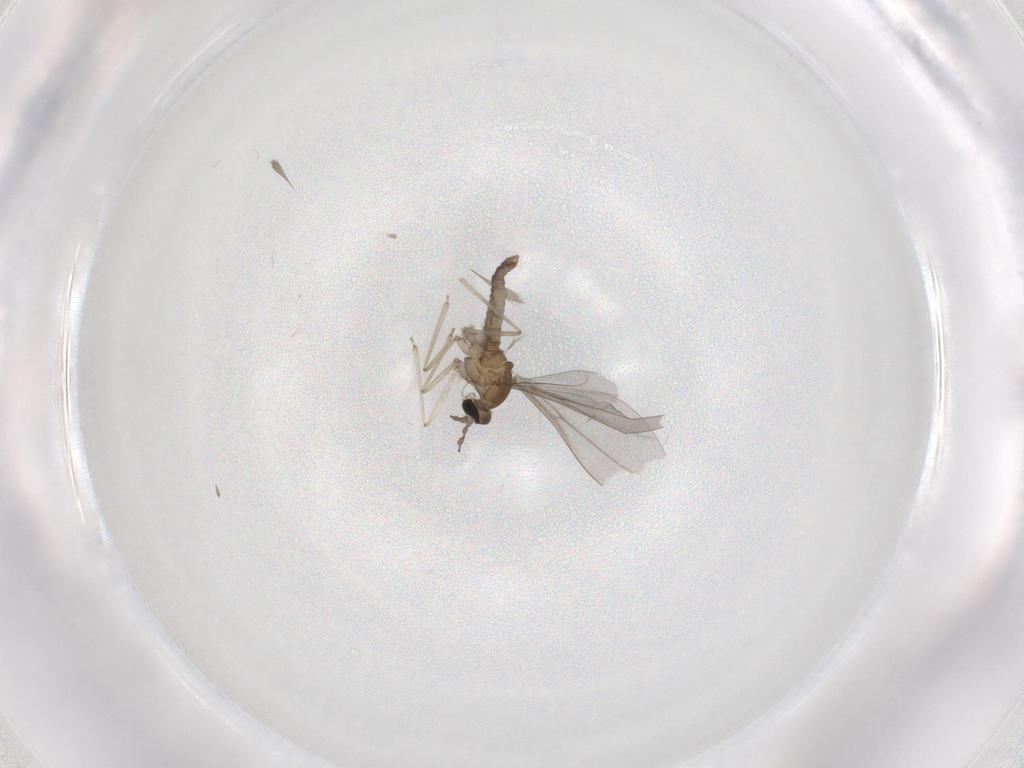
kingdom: Animalia
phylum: Arthropoda
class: Insecta
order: Diptera
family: Cecidomyiidae
